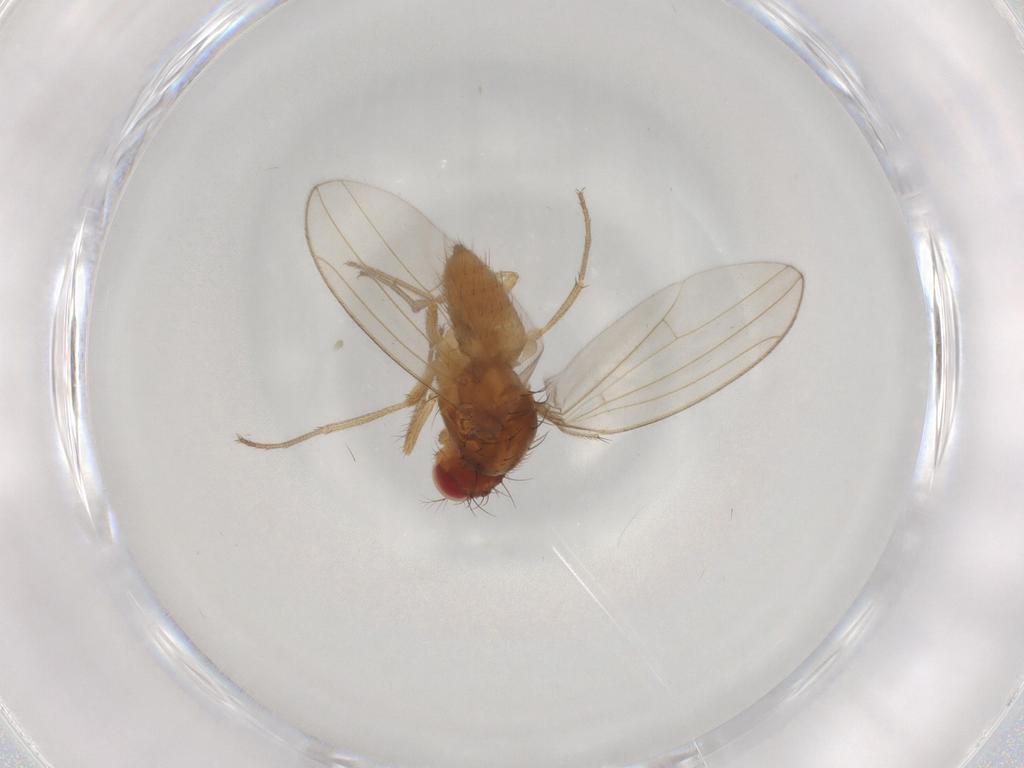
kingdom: Animalia
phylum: Arthropoda
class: Insecta
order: Diptera
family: Drosophilidae
